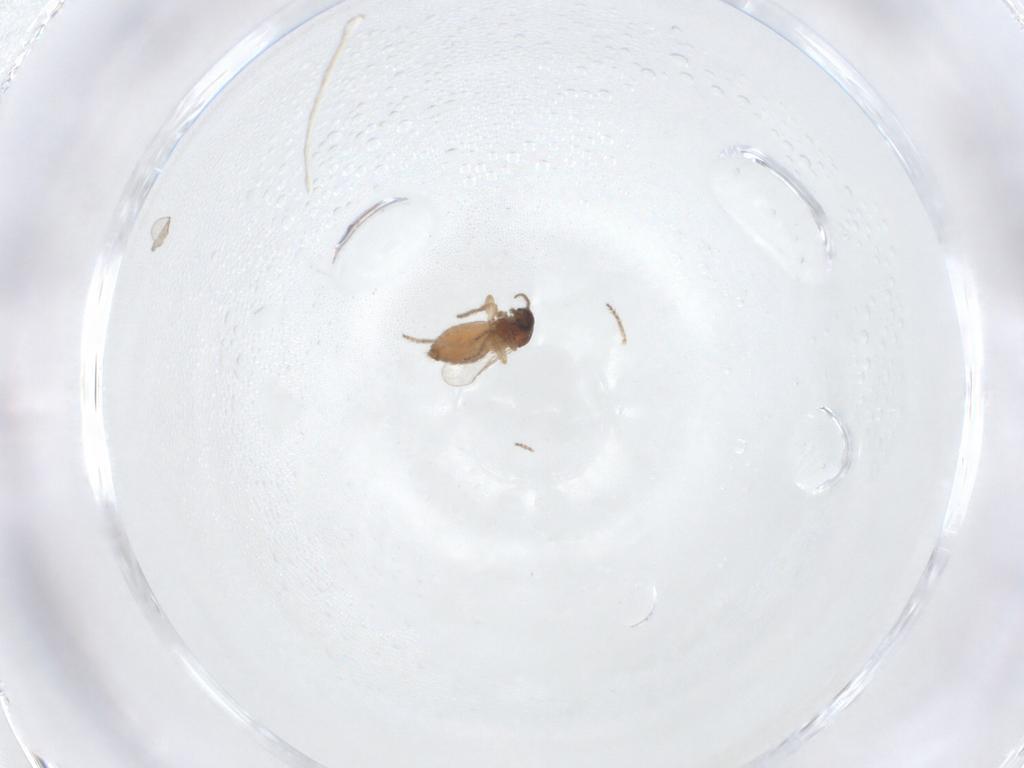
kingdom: Animalia
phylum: Arthropoda
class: Insecta
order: Diptera
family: Ceratopogonidae
